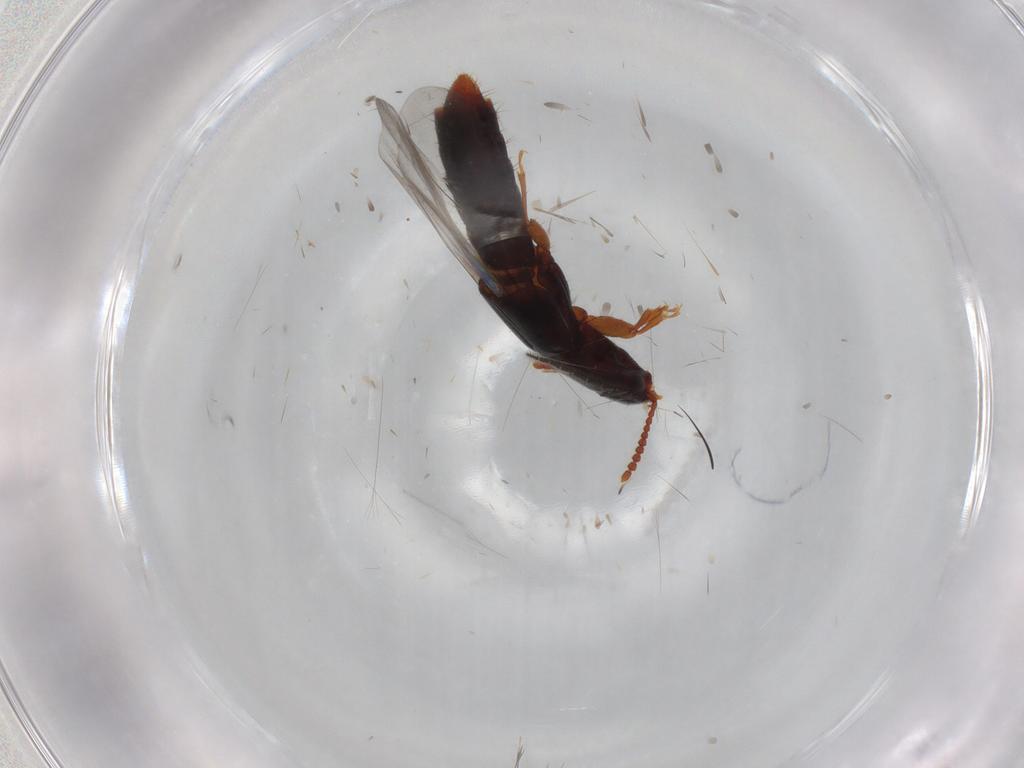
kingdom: Animalia
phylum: Arthropoda
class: Insecta
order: Coleoptera
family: Staphylinidae
